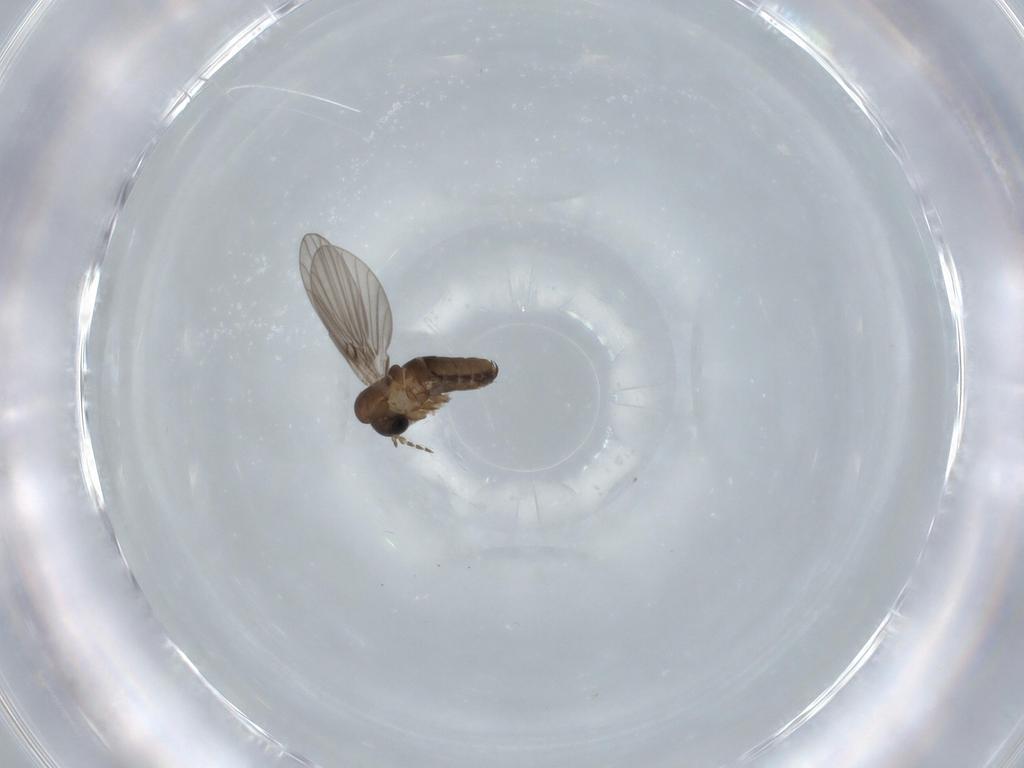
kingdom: Animalia
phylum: Arthropoda
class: Insecta
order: Diptera
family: Psychodidae
